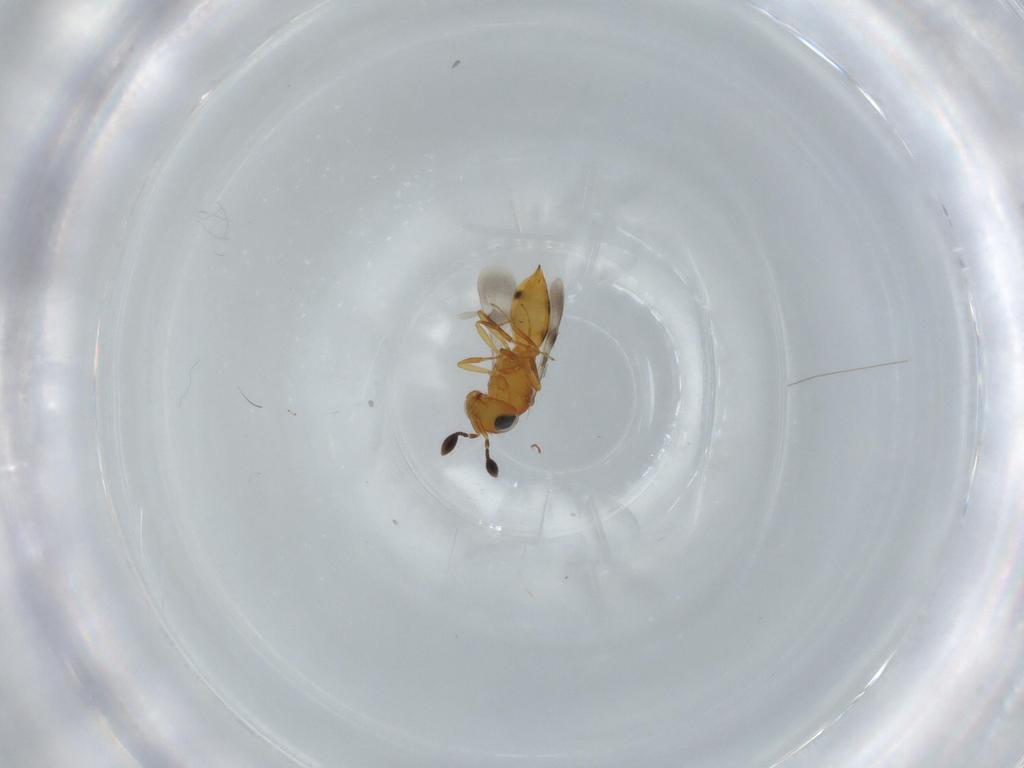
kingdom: Animalia
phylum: Arthropoda
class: Insecta
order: Hymenoptera
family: Scelionidae
